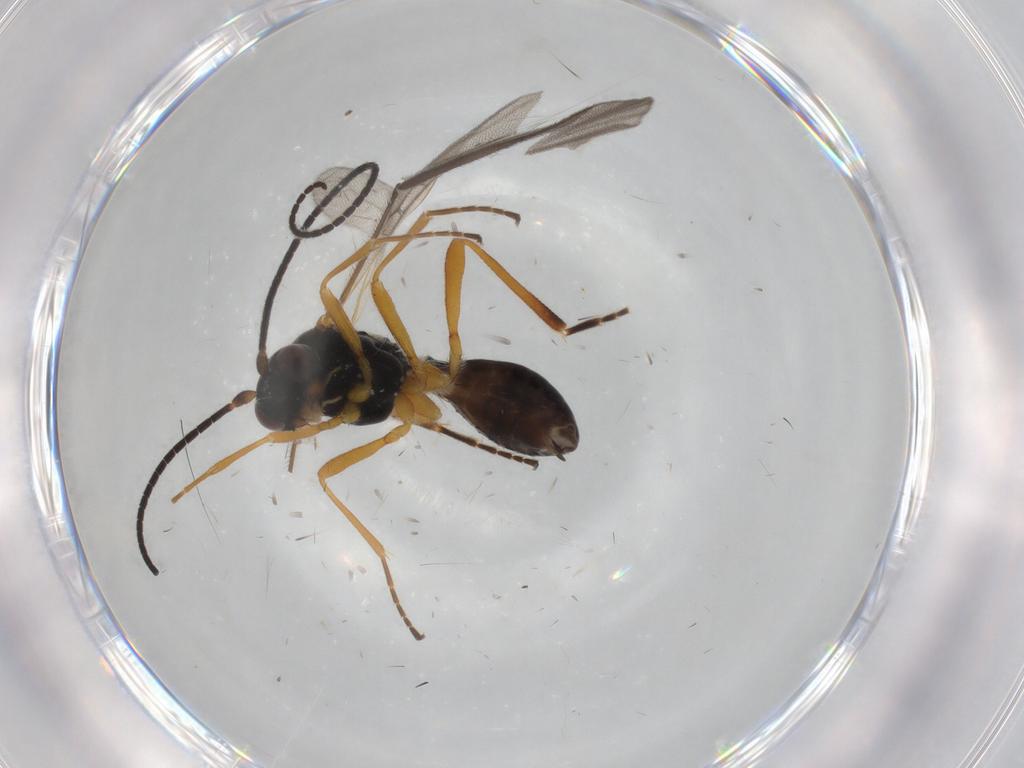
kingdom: Animalia
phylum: Arthropoda
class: Insecta
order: Hymenoptera
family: Braconidae
